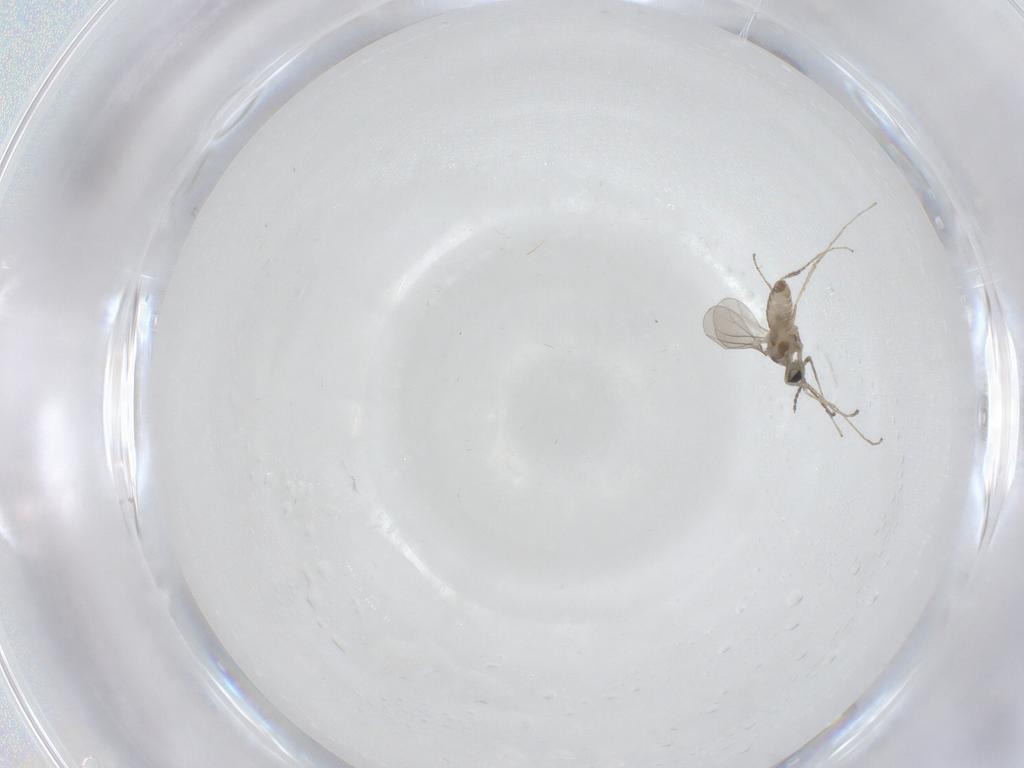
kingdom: Animalia
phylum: Arthropoda
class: Insecta
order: Diptera
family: Cecidomyiidae
